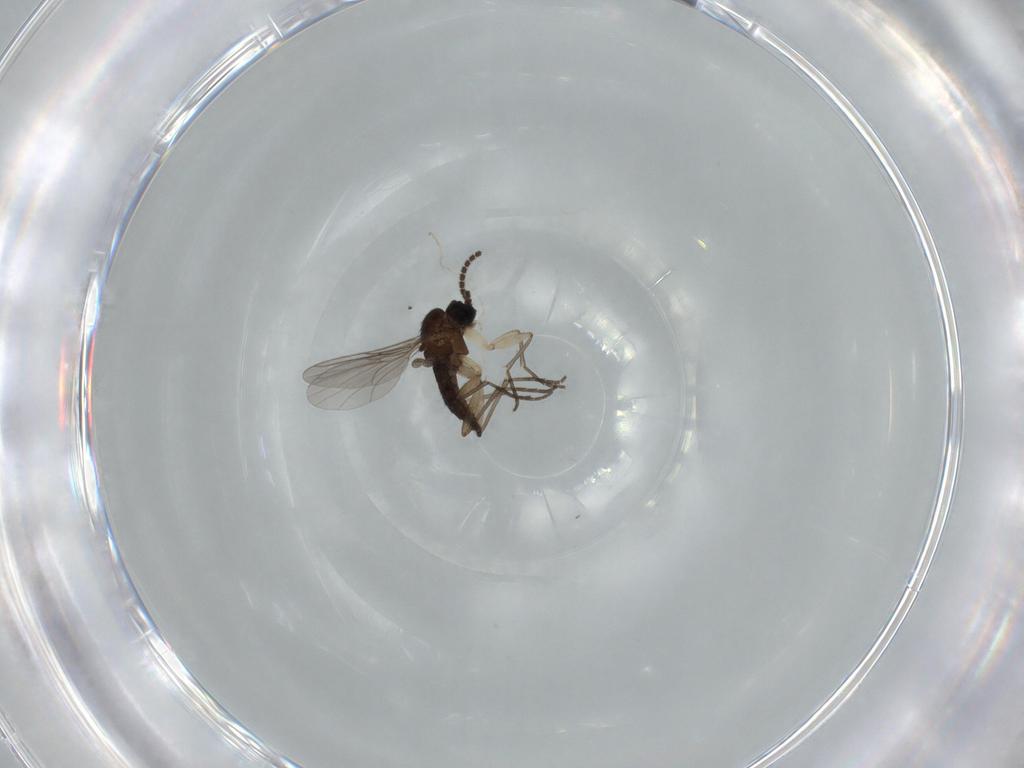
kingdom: Animalia
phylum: Arthropoda
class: Insecta
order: Diptera
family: Sciaridae
